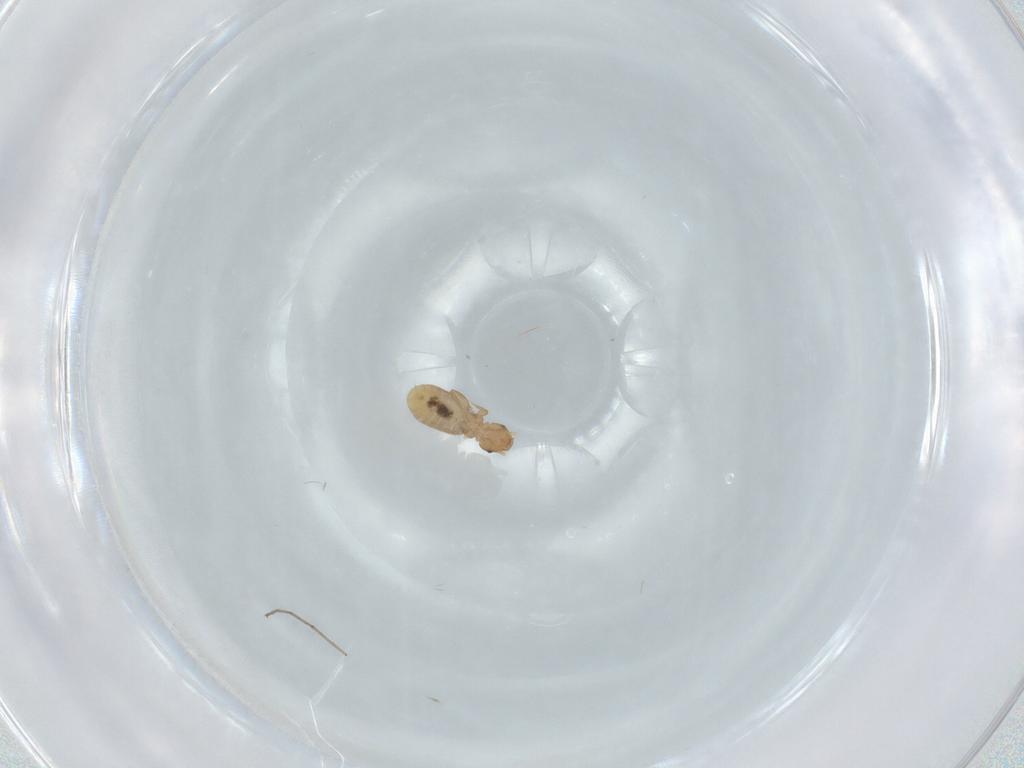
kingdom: Animalia
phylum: Arthropoda
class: Insecta
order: Psocodea
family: Liposcelididae
